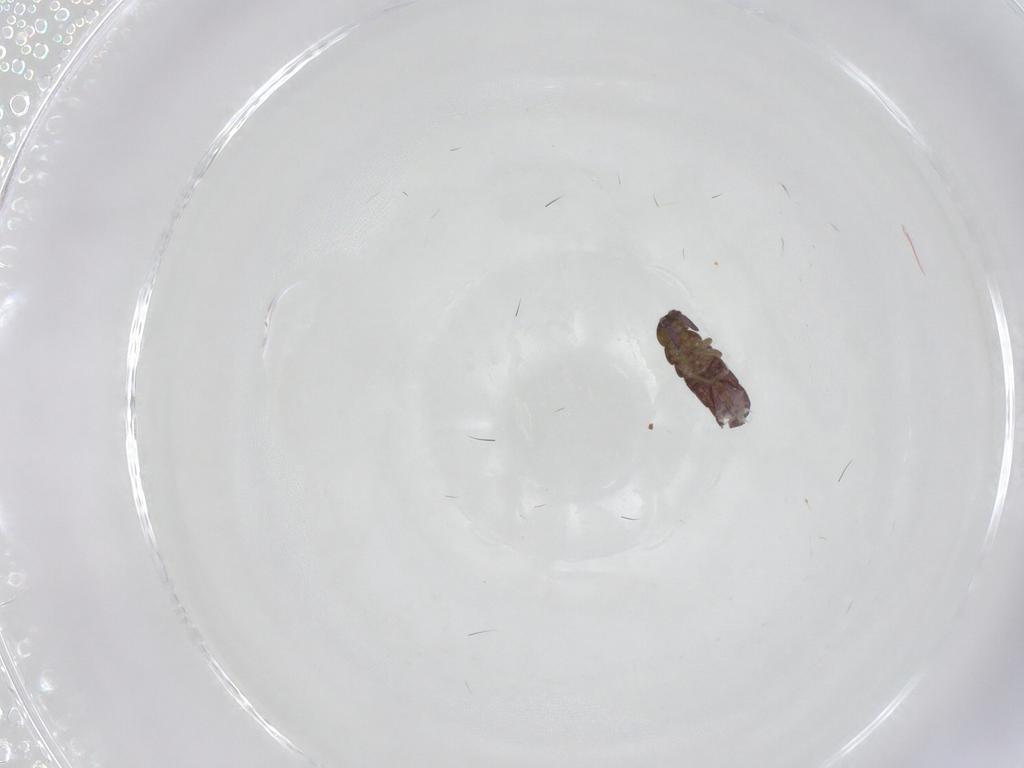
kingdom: Animalia
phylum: Arthropoda
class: Collembola
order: Entomobryomorpha
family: Isotomidae
